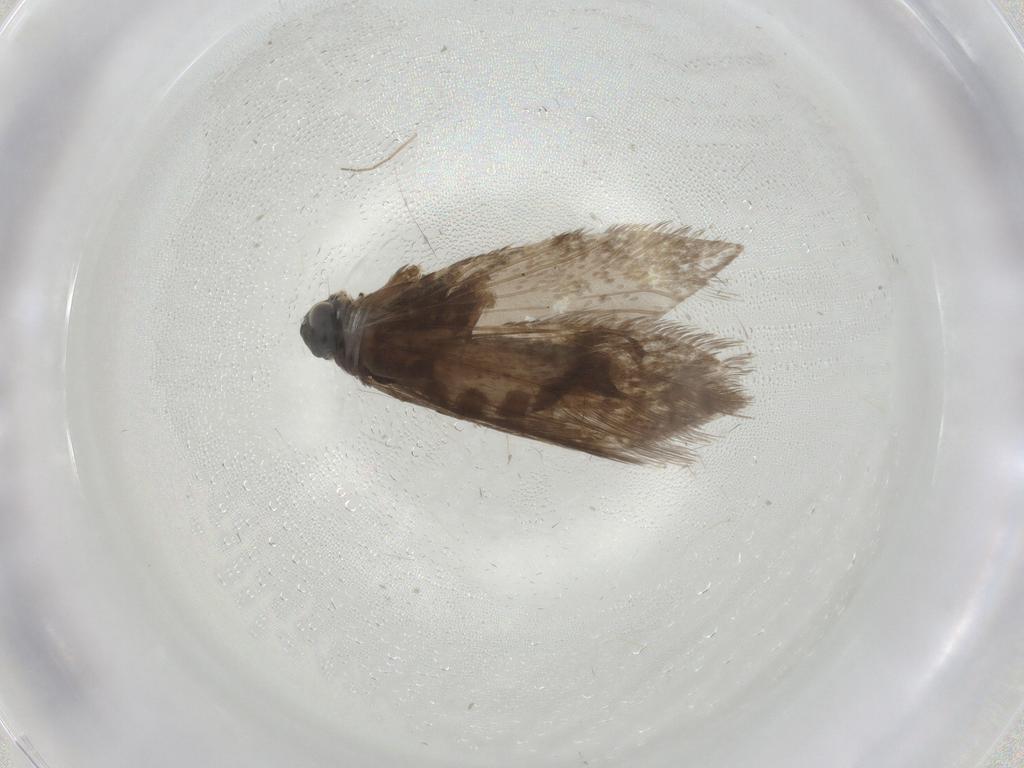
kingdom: Animalia
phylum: Arthropoda
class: Insecta
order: Lepidoptera
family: Micropterigidae
